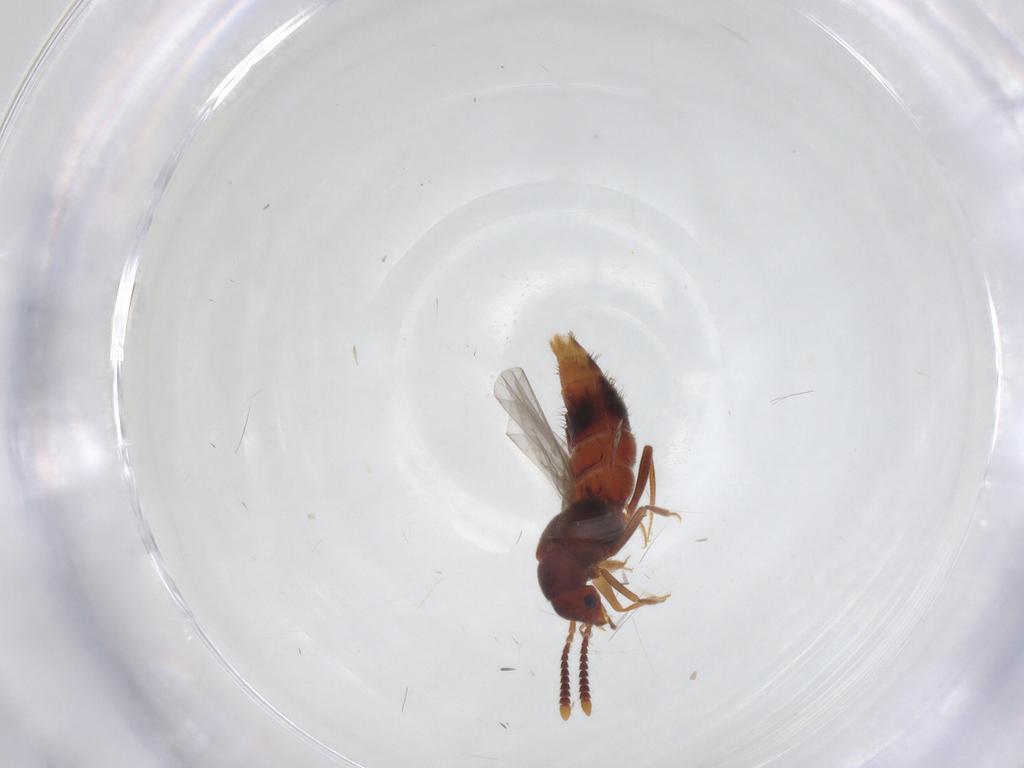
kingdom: Animalia
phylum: Arthropoda
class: Insecta
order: Coleoptera
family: Staphylinidae
